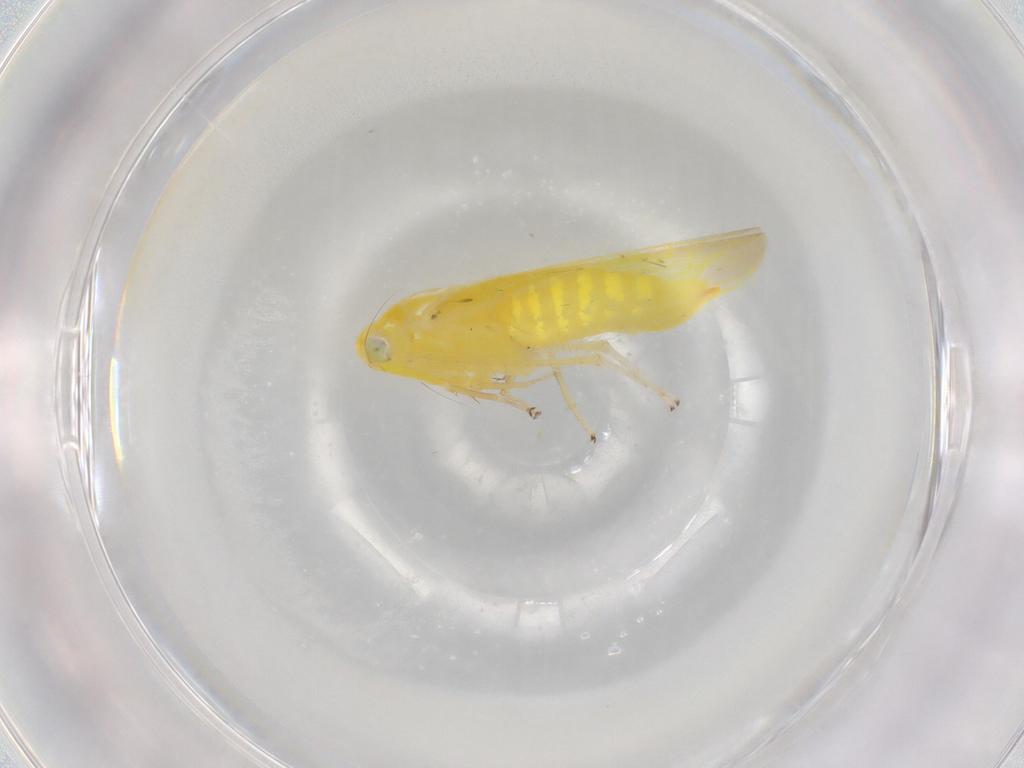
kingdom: Animalia
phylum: Arthropoda
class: Insecta
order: Hemiptera
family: Cicadellidae
